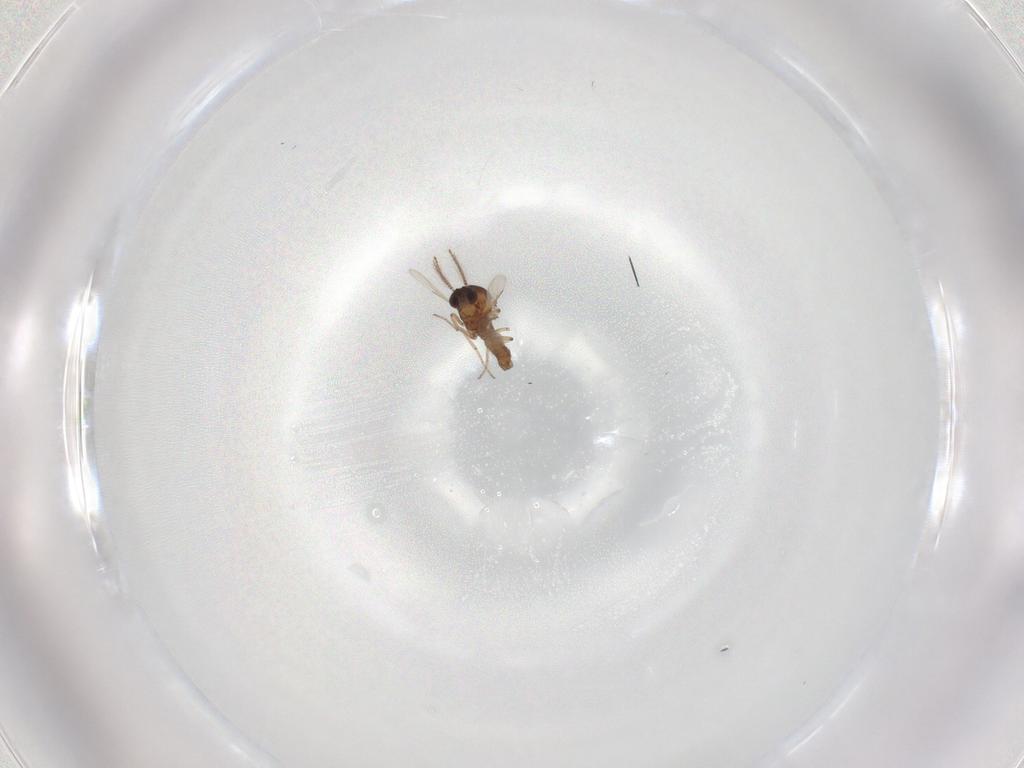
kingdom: Animalia
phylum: Arthropoda
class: Insecta
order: Diptera
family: Ceratopogonidae
